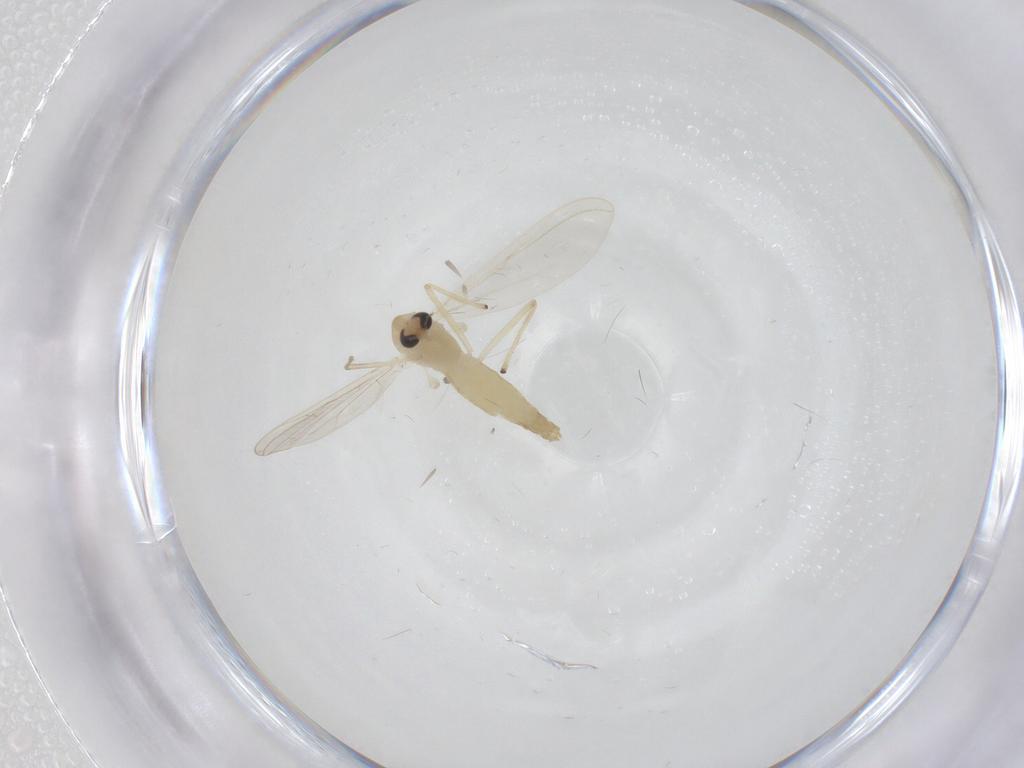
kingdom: Animalia
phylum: Arthropoda
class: Insecta
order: Diptera
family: Chironomidae
